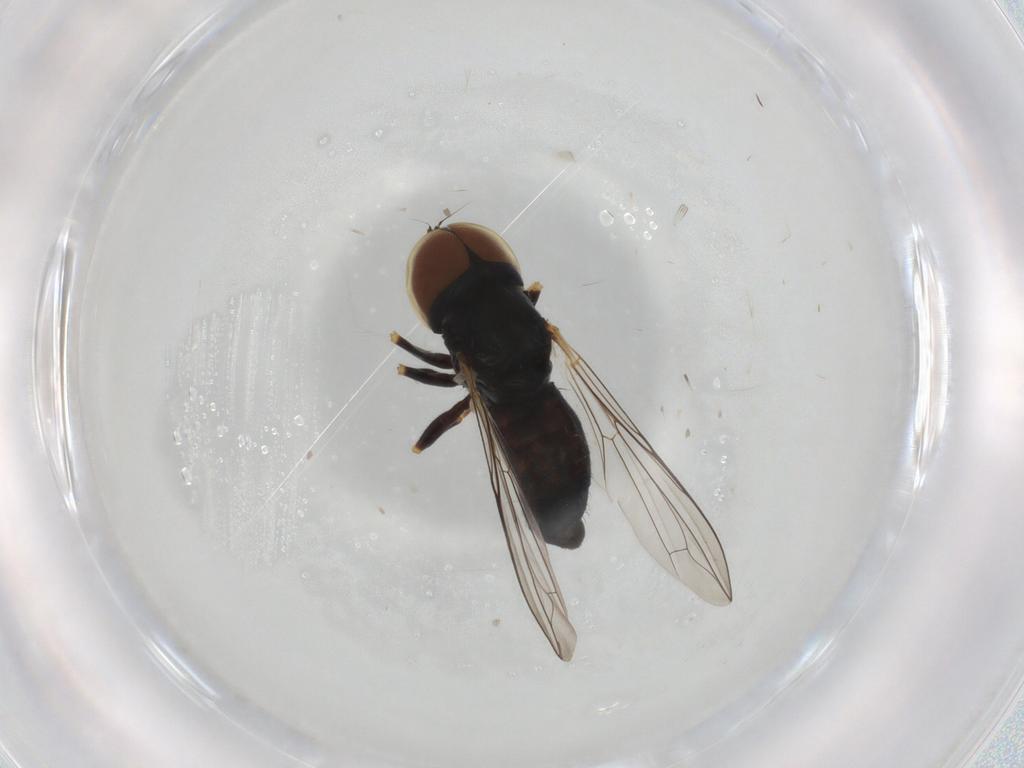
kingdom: Animalia
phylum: Arthropoda
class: Insecta
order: Diptera
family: Pipunculidae
